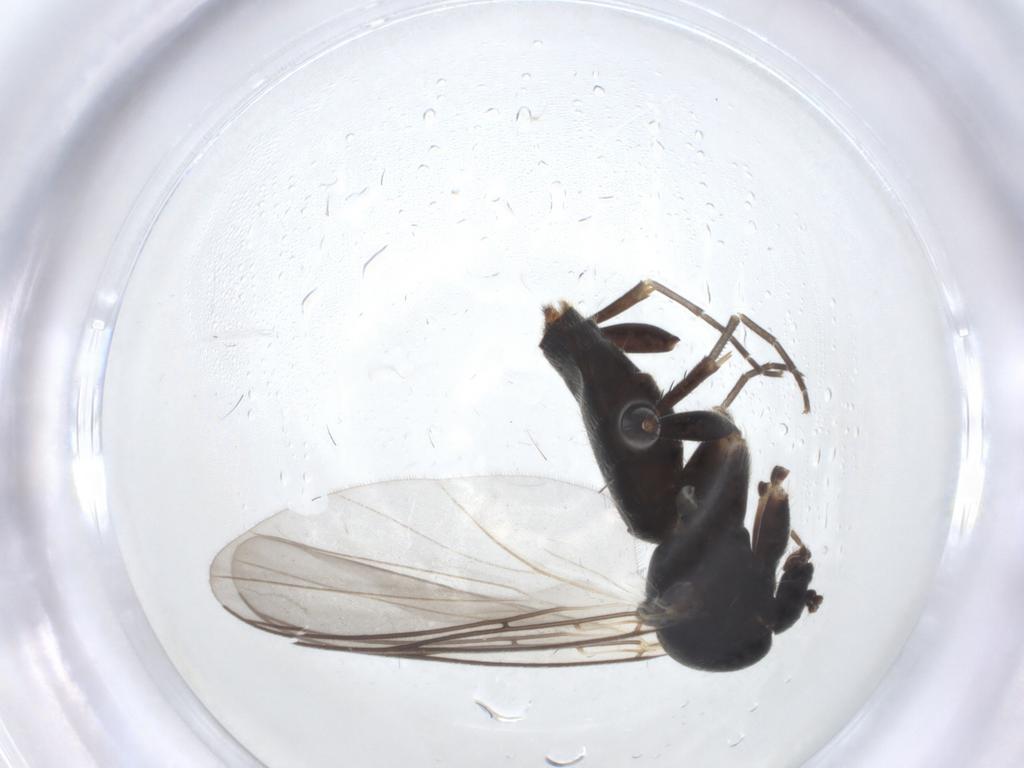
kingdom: Animalia
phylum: Arthropoda
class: Insecta
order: Diptera
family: Mycetophilidae
